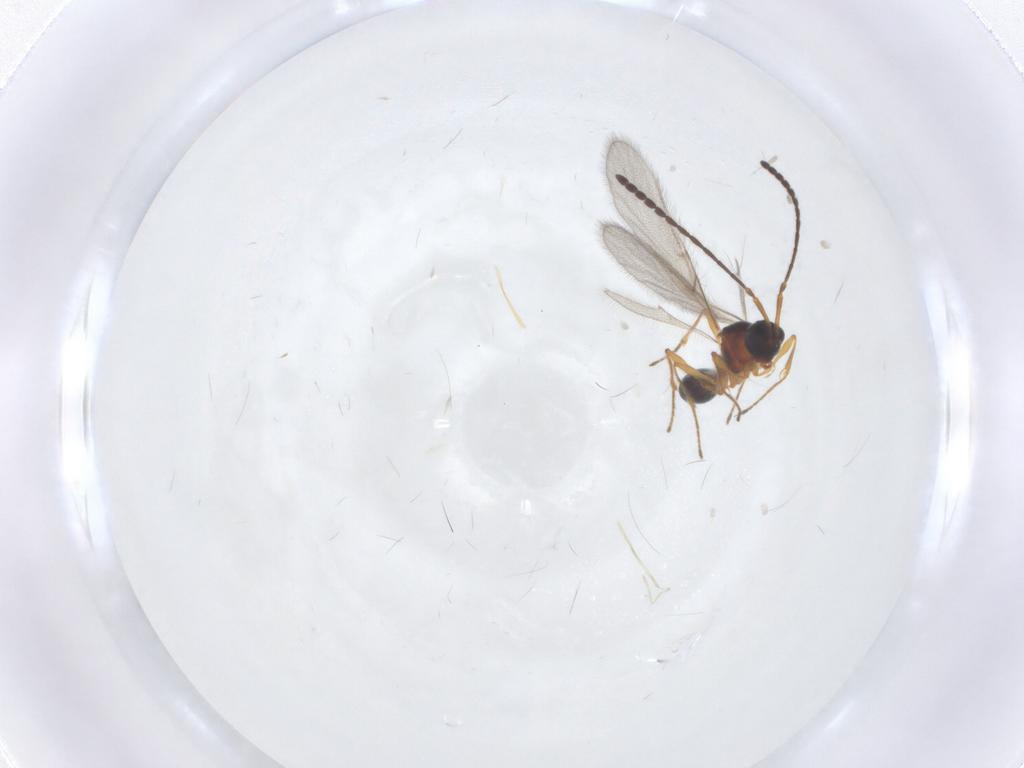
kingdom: Animalia
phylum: Arthropoda
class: Insecta
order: Hymenoptera
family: Diapriidae
